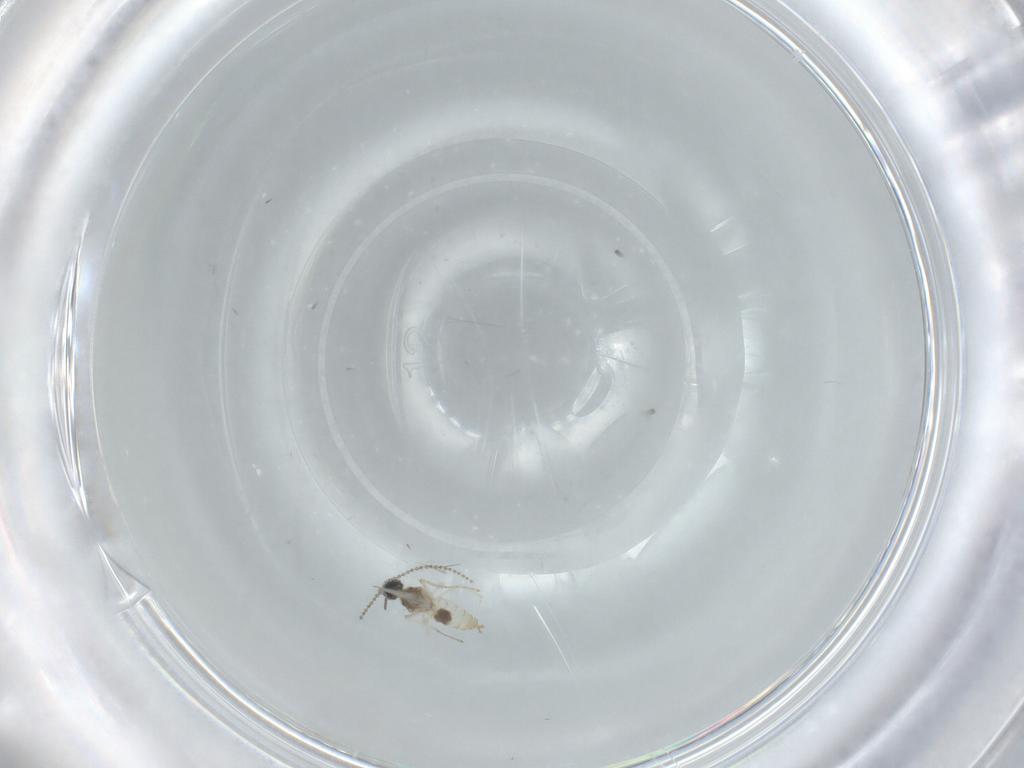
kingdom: Animalia
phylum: Arthropoda
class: Insecta
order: Diptera
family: Cecidomyiidae
